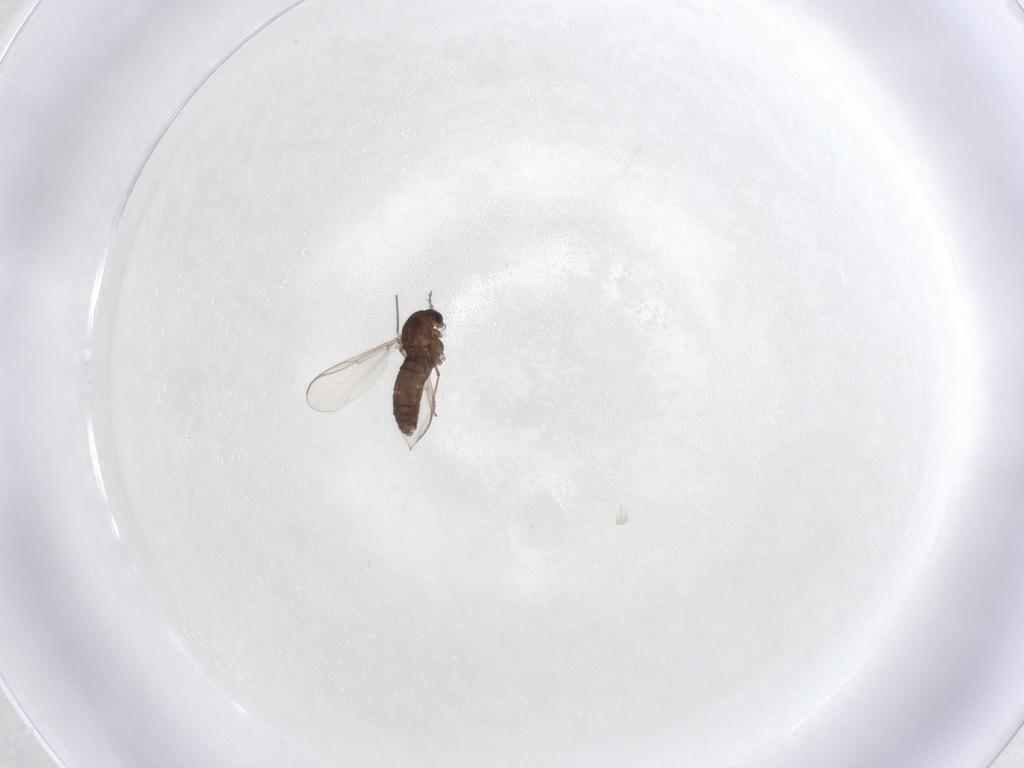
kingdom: Animalia
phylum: Arthropoda
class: Insecta
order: Diptera
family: Chironomidae
